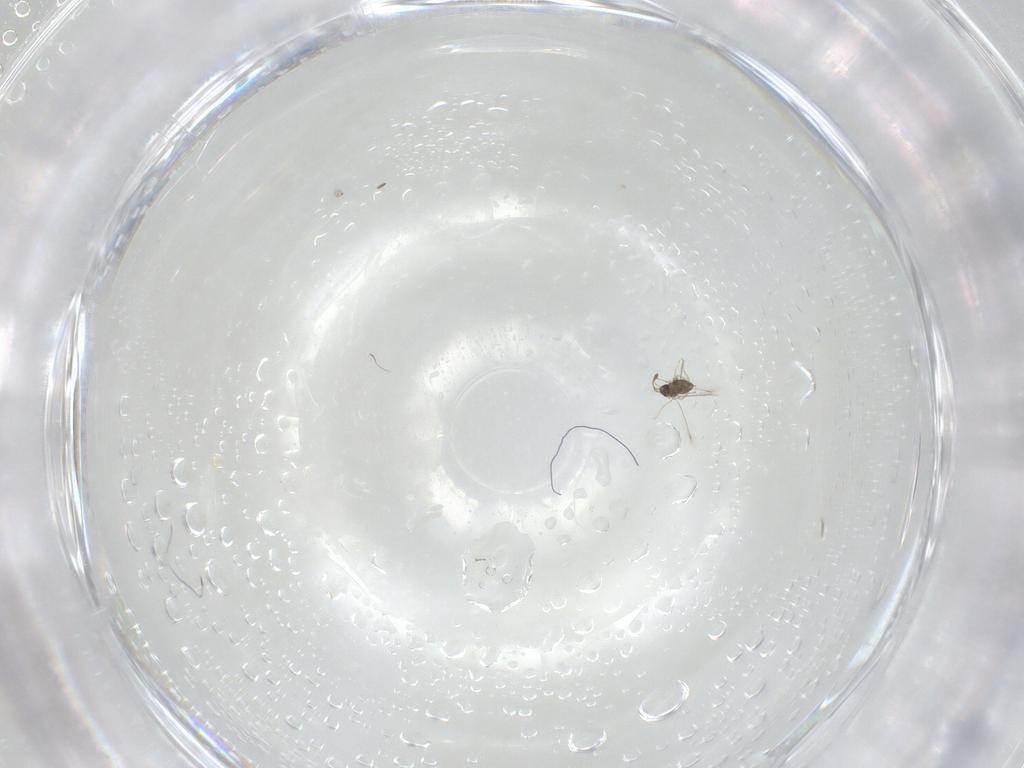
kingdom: Animalia
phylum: Arthropoda
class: Insecta
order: Hymenoptera
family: Mymaridae
